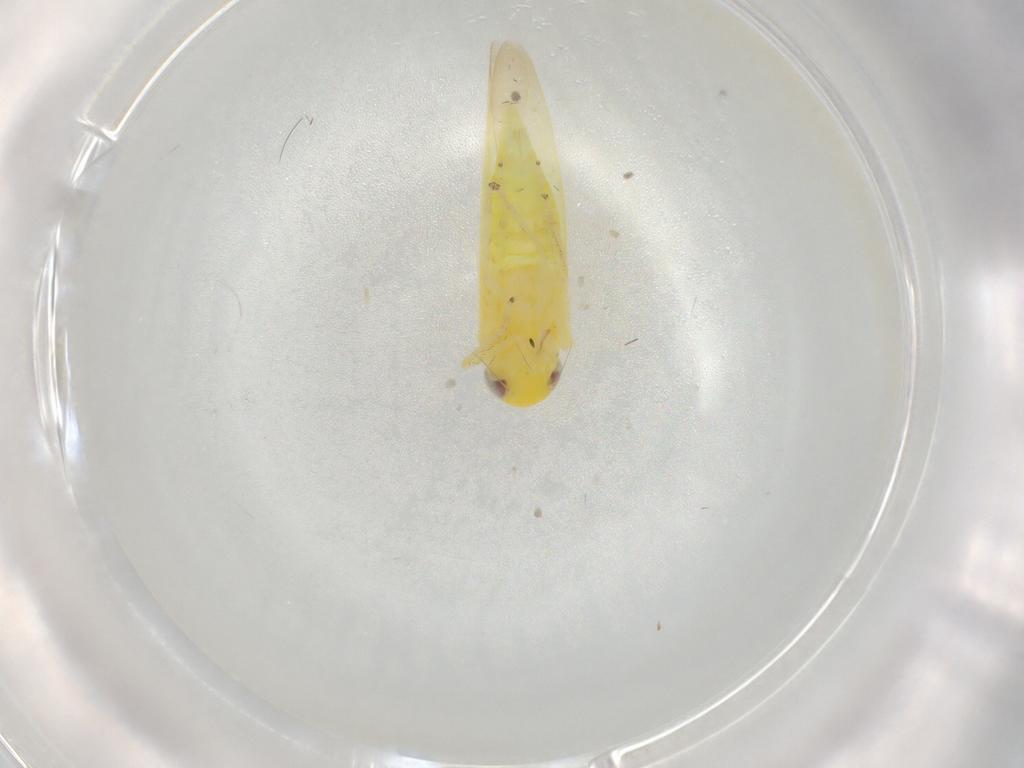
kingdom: Animalia
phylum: Arthropoda
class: Insecta
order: Hemiptera
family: Cicadellidae
